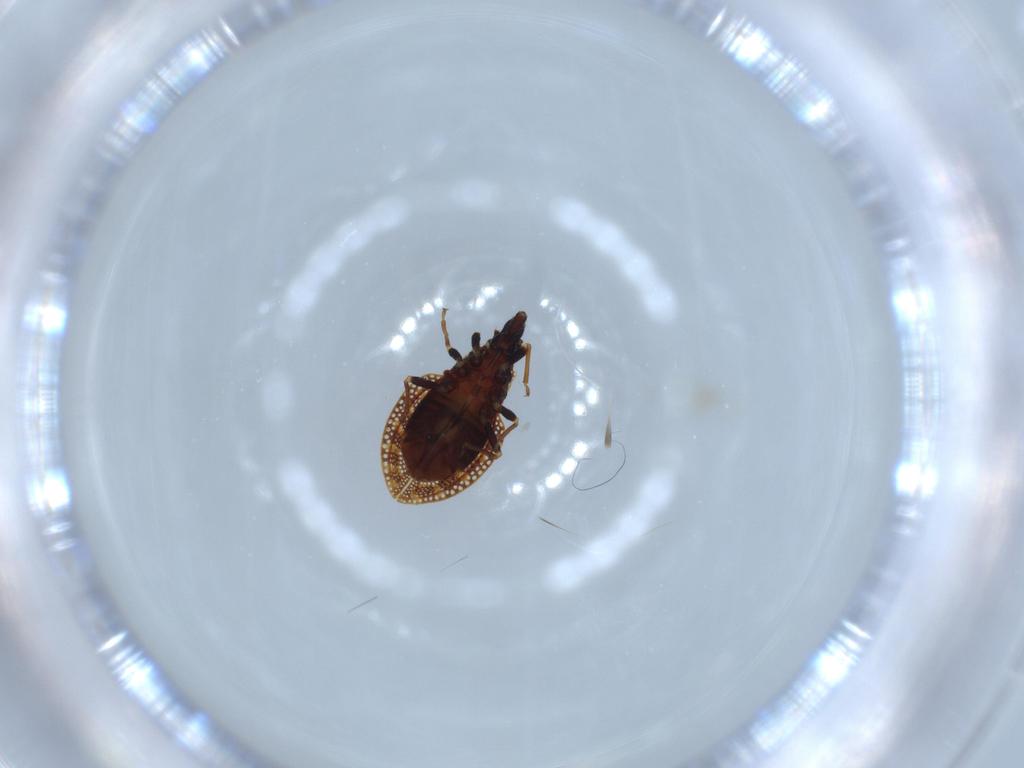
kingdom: Animalia
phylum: Arthropoda
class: Insecta
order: Hemiptera
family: Tingidae
